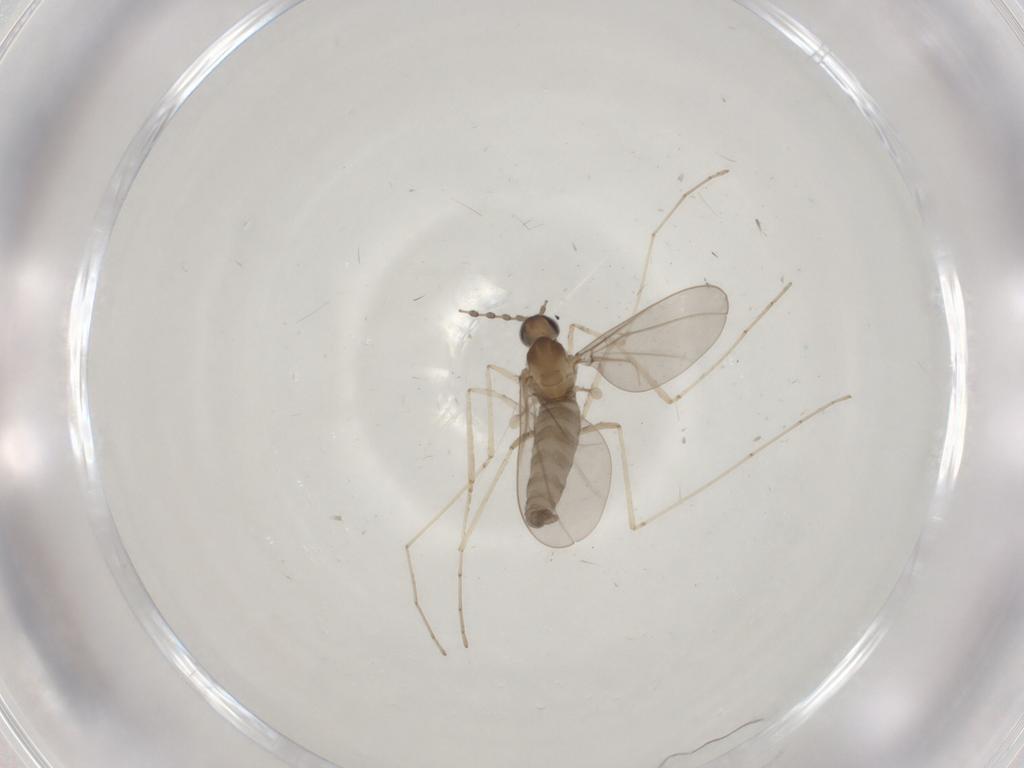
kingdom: Animalia
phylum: Arthropoda
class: Insecta
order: Diptera
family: Cecidomyiidae
